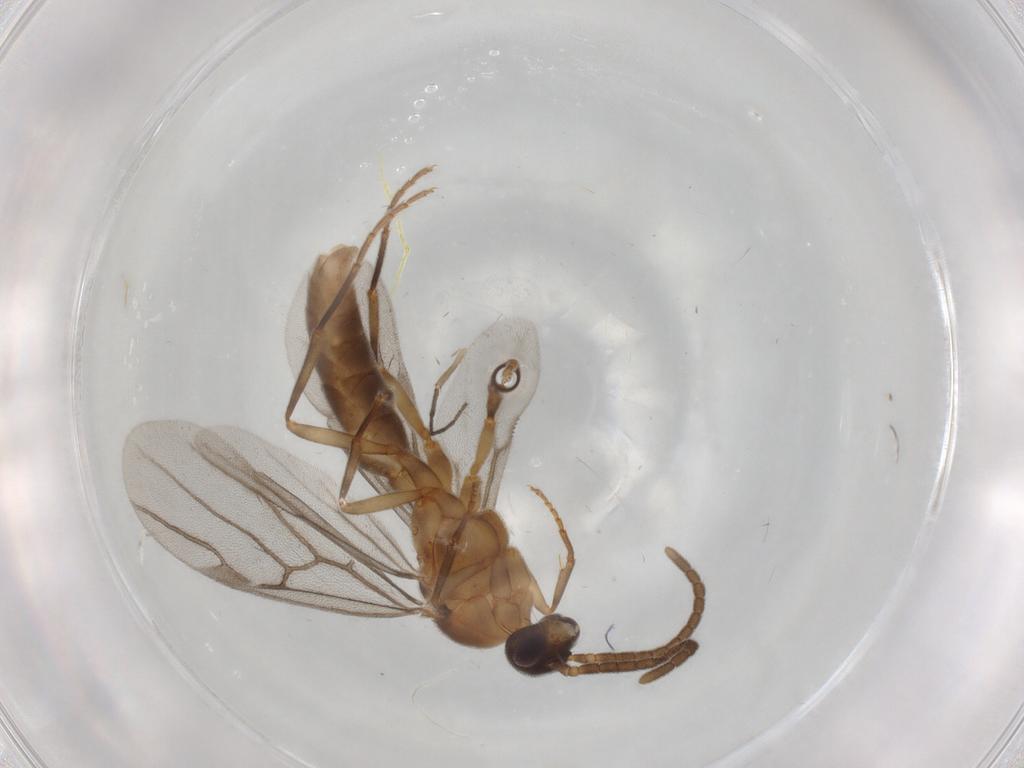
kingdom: Animalia
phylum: Arthropoda
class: Insecta
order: Hymenoptera
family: Formicidae
